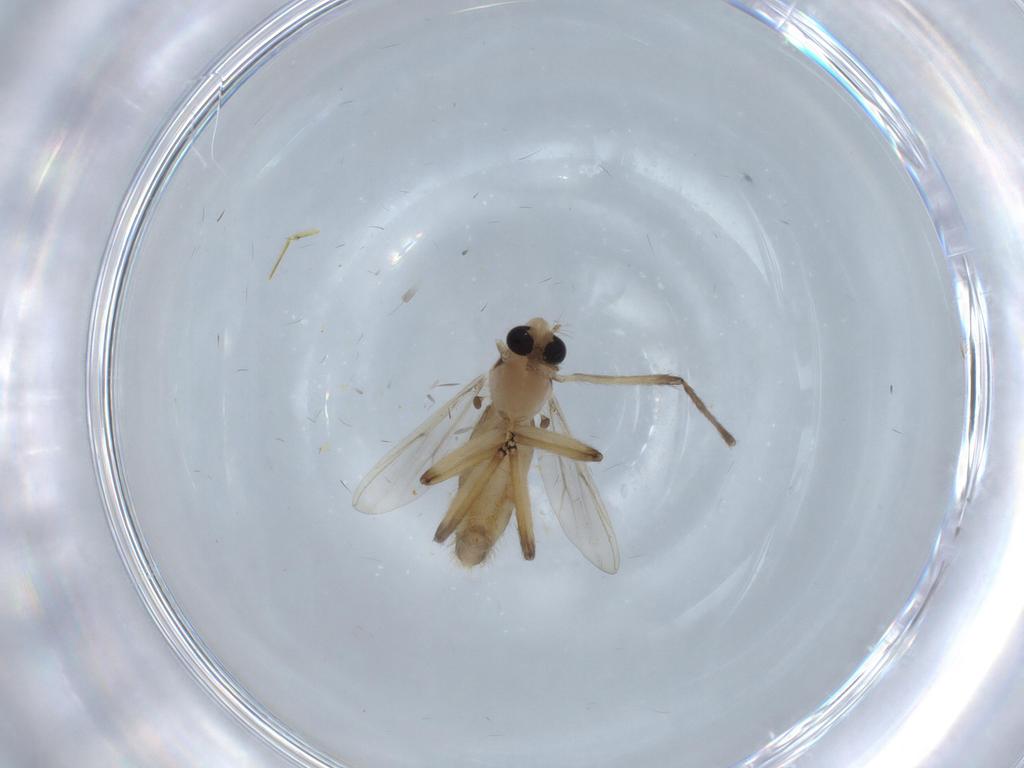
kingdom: Animalia
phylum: Arthropoda
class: Insecta
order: Diptera
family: Chironomidae
